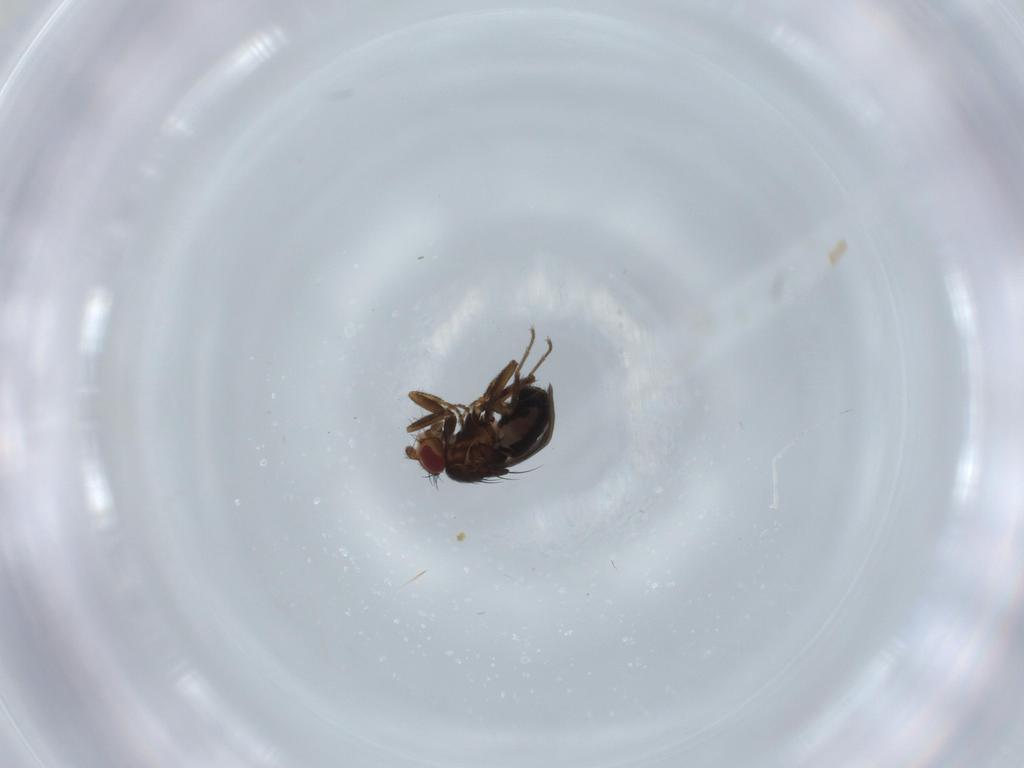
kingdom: Animalia
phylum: Arthropoda
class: Insecta
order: Diptera
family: Sphaeroceridae
